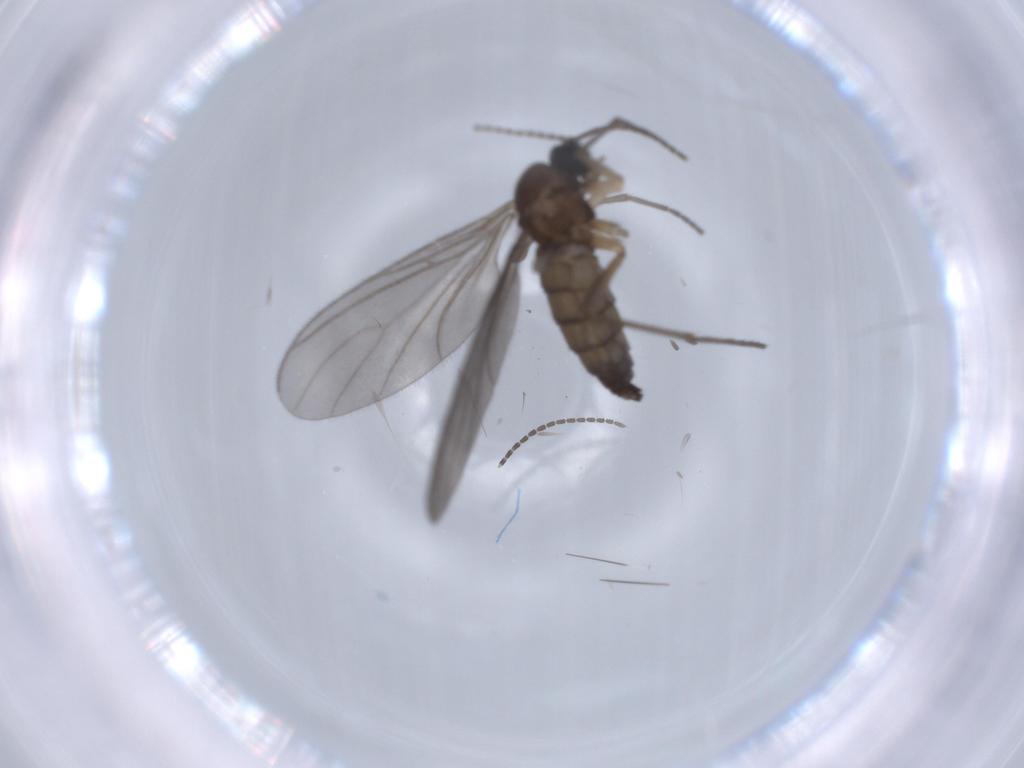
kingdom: Animalia
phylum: Arthropoda
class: Insecta
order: Diptera
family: Sciaridae
